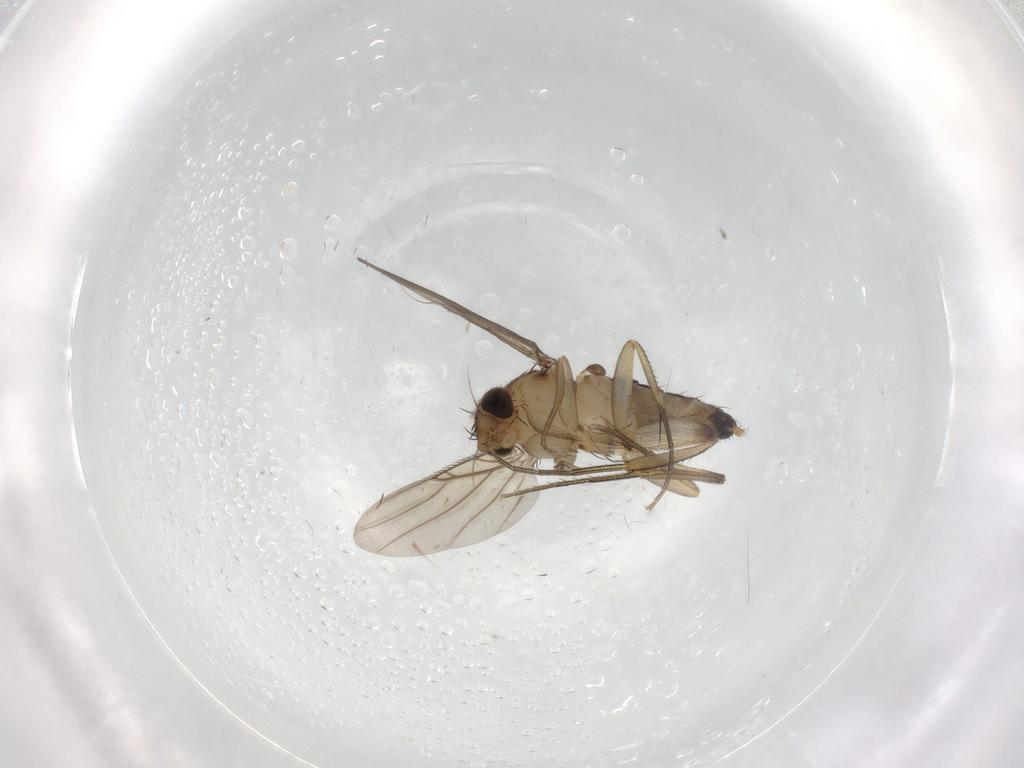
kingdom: Animalia
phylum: Arthropoda
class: Insecta
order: Diptera
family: Phoridae
